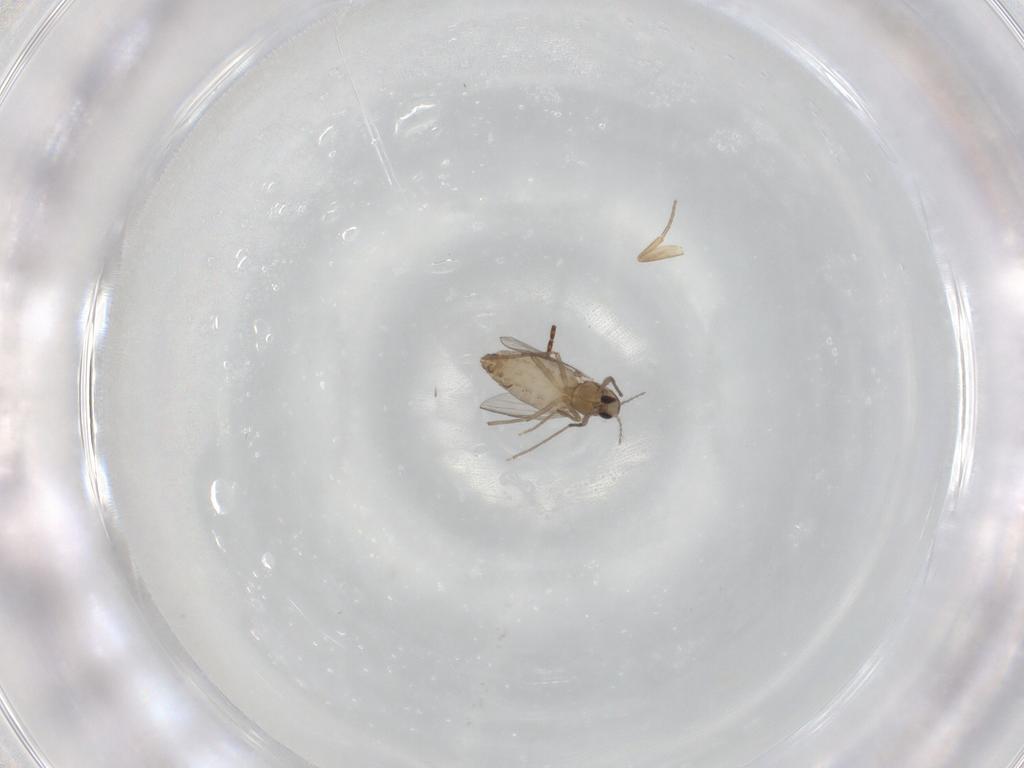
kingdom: Animalia
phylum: Arthropoda
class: Insecta
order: Diptera
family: Chironomidae
